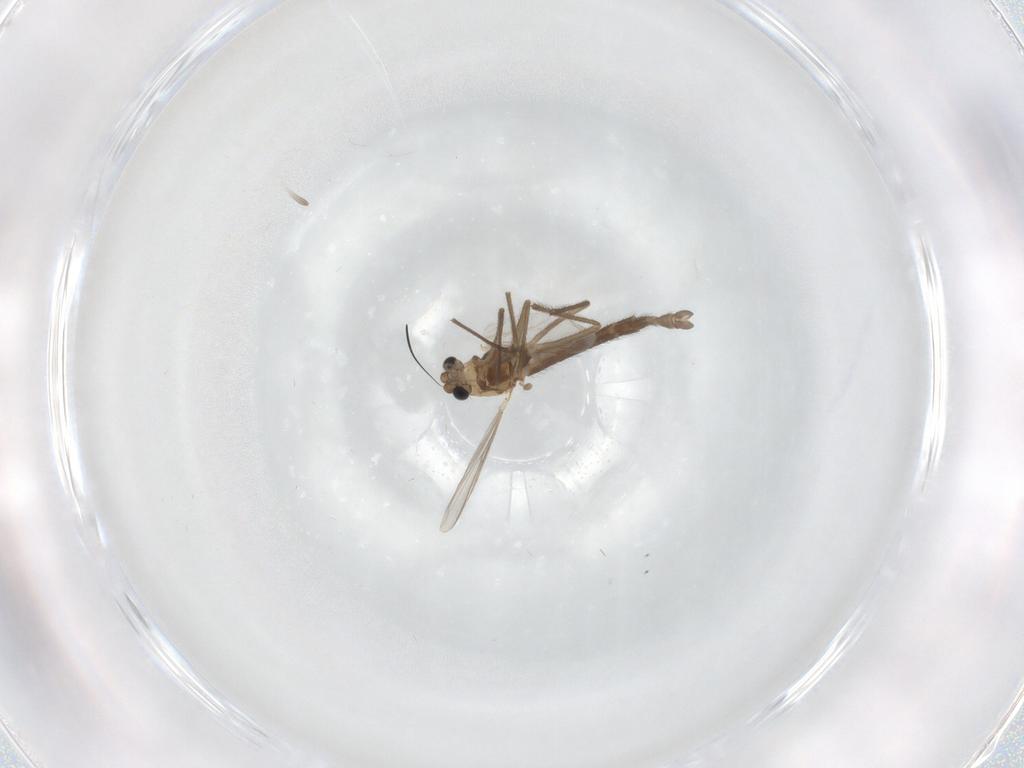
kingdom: Animalia
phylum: Arthropoda
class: Insecta
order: Diptera
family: Chironomidae
